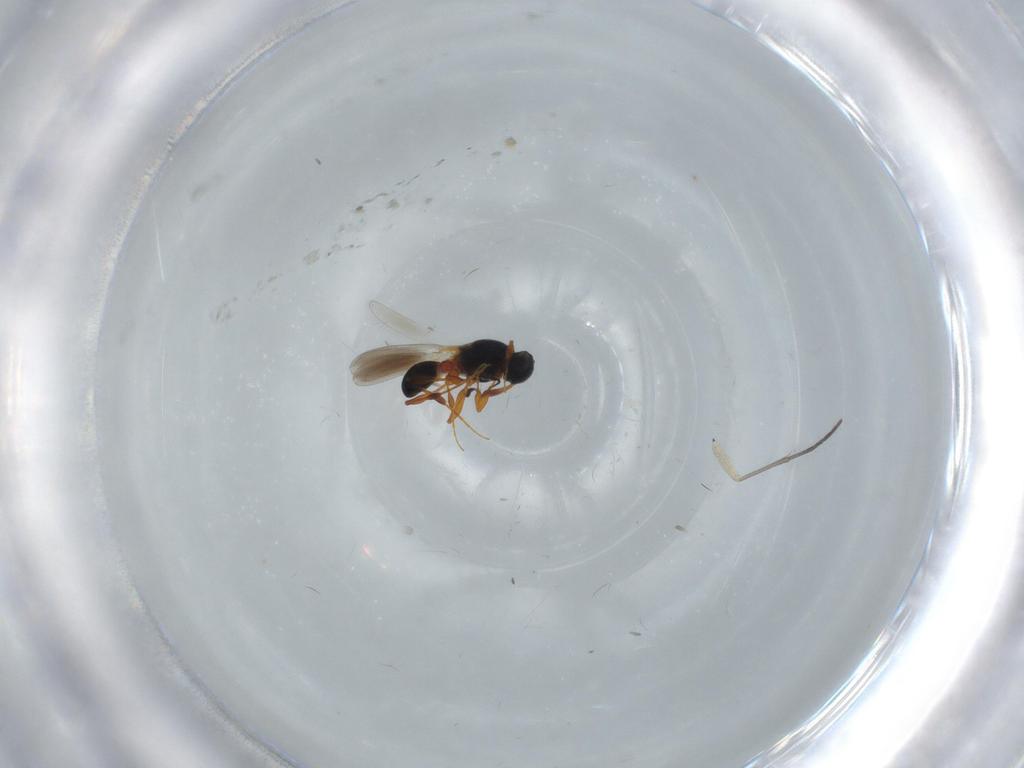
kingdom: Animalia
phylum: Arthropoda
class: Insecta
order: Hymenoptera
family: Platygastridae
